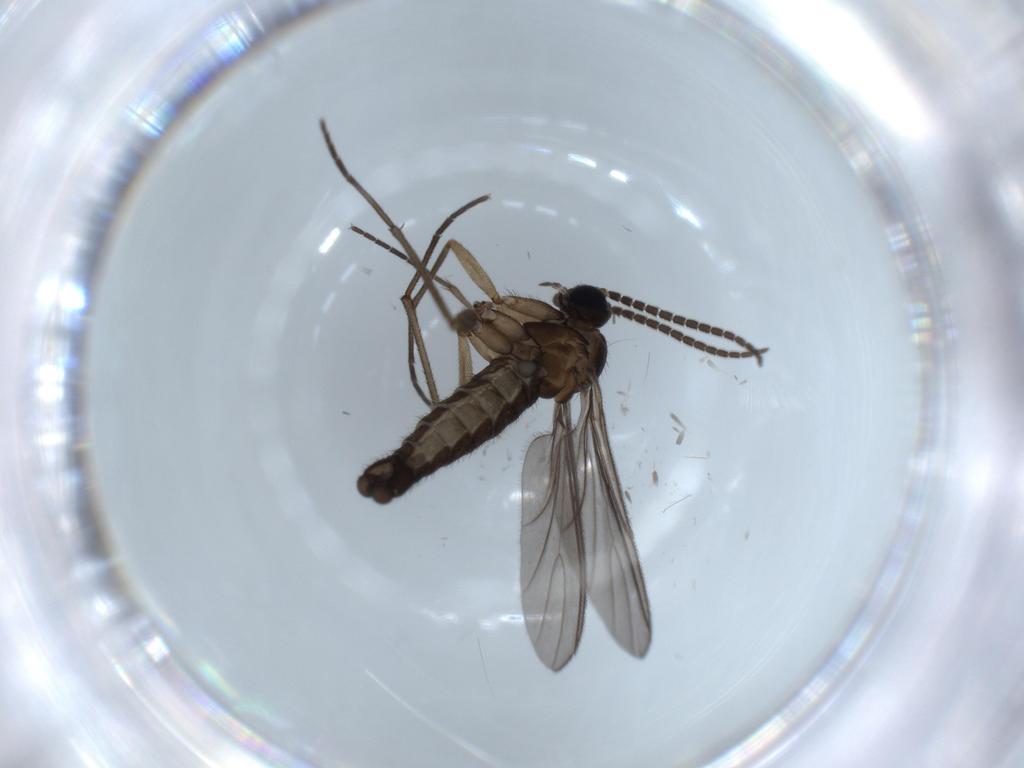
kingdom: Animalia
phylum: Arthropoda
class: Insecta
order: Diptera
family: Sciaridae
